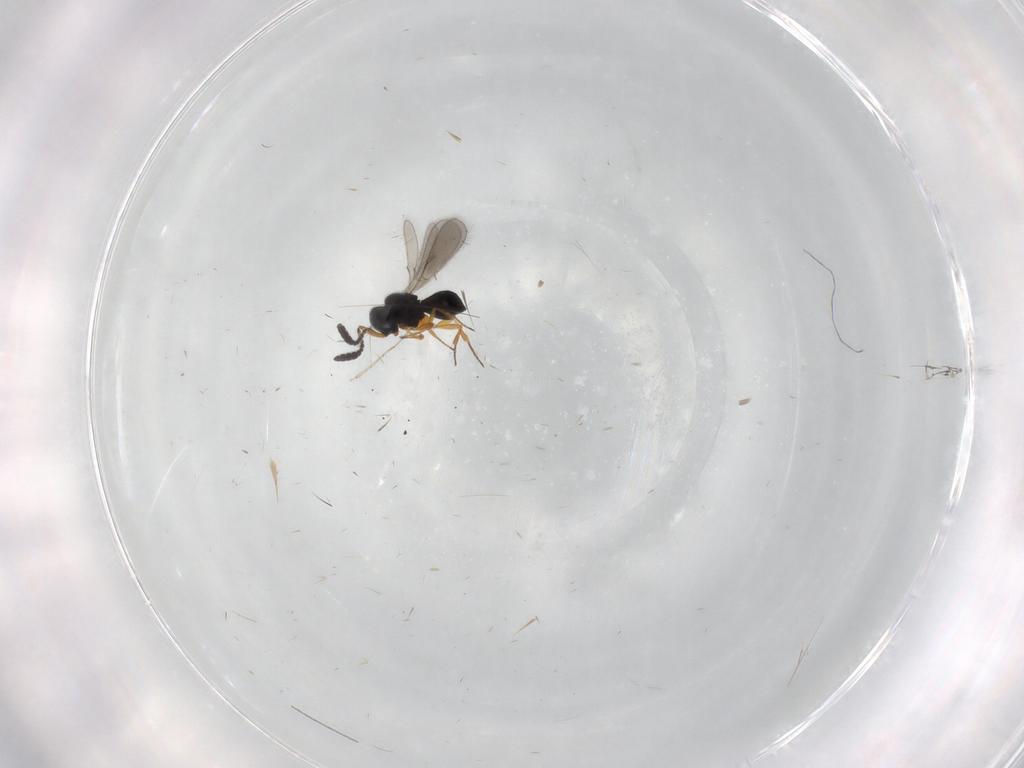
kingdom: Animalia
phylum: Arthropoda
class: Insecta
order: Hymenoptera
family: Scelionidae
